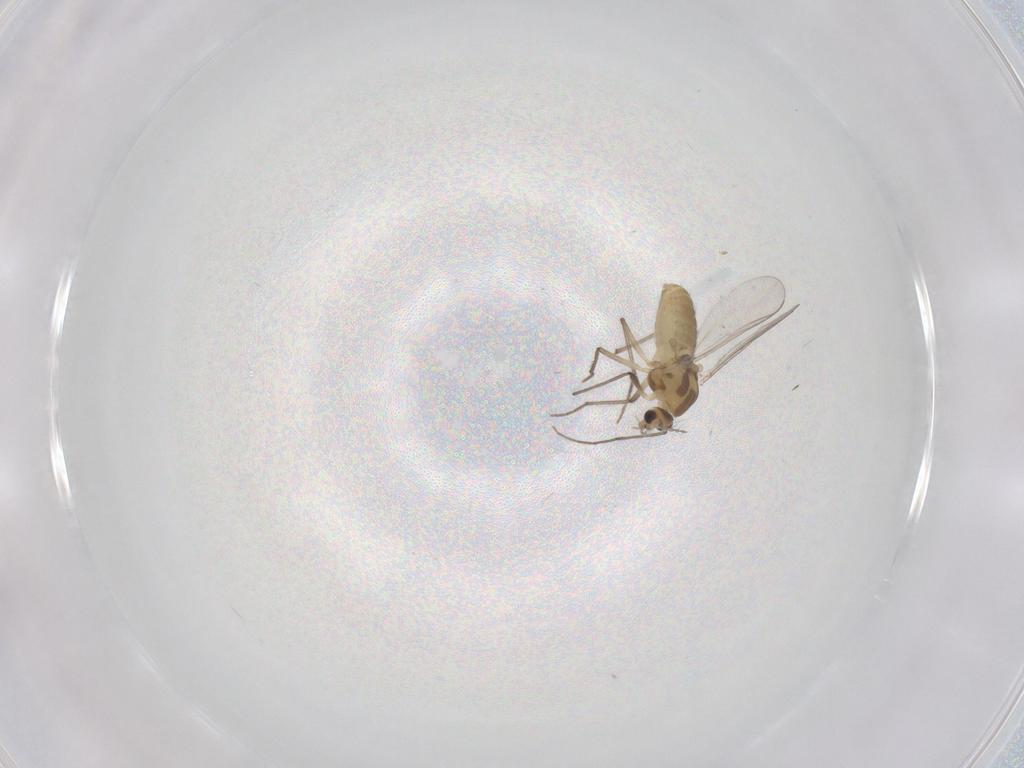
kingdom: Animalia
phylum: Arthropoda
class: Insecta
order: Diptera
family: Chironomidae
